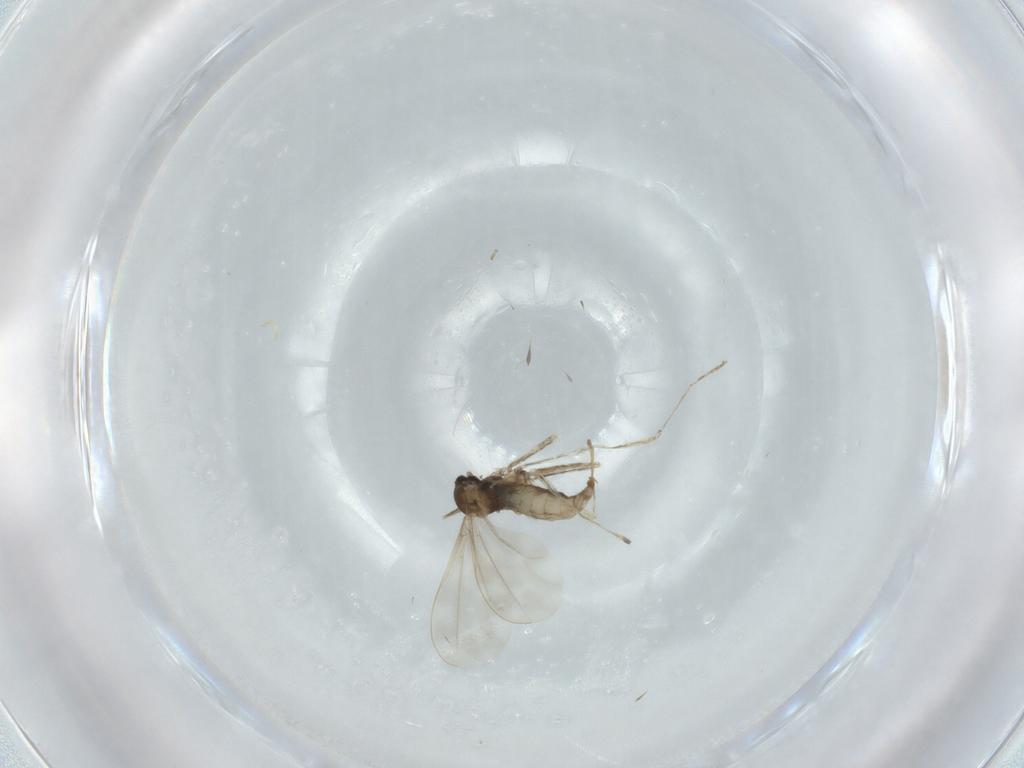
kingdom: Animalia
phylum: Arthropoda
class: Insecta
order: Diptera
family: Cecidomyiidae
